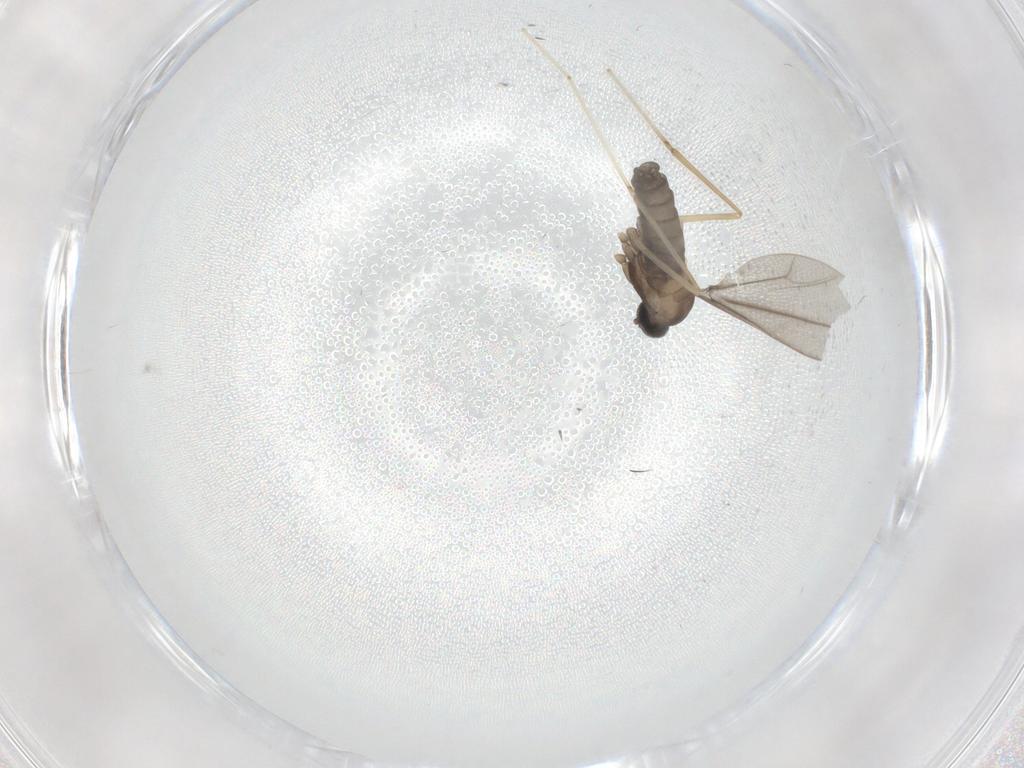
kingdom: Animalia
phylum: Arthropoda
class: Insecta
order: Diptera
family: Cecidomyiidae
